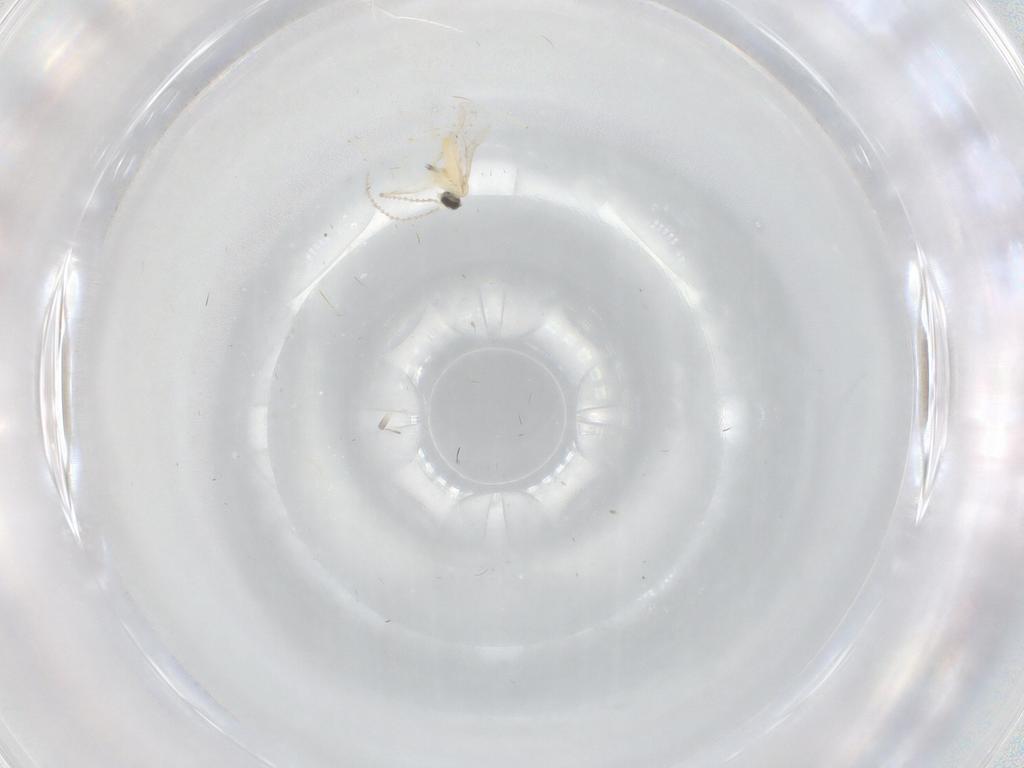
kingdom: Animalia
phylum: Arthropoda
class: Insecta
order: Diptera
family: Cecidomyiidae
